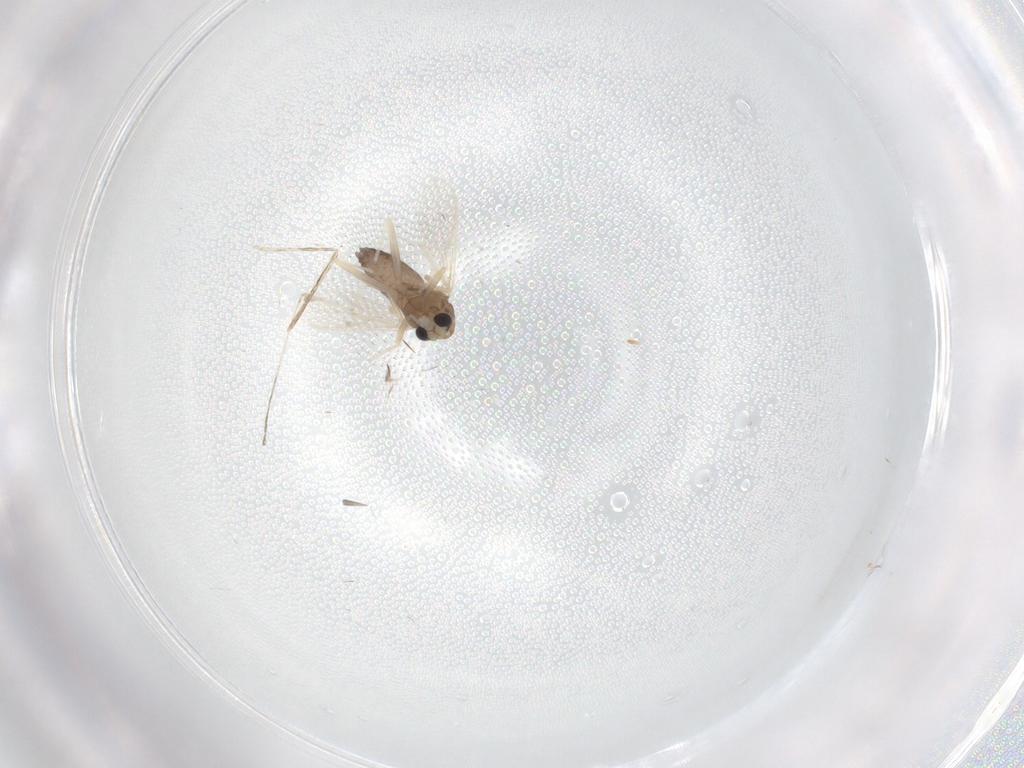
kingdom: Animalia
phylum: Arthropoda
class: Insecta
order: Diptera
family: Chironomidae
